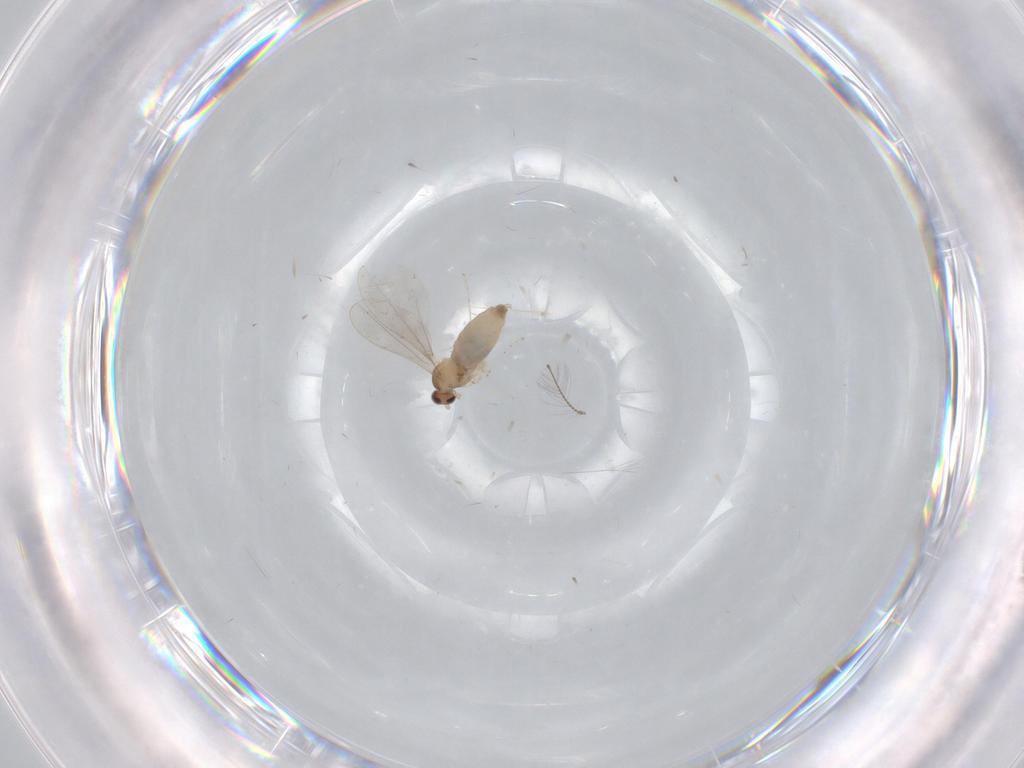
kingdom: Animalia
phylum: Arthropoda
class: Insecta
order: Diptera
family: Cecidomyiidae
